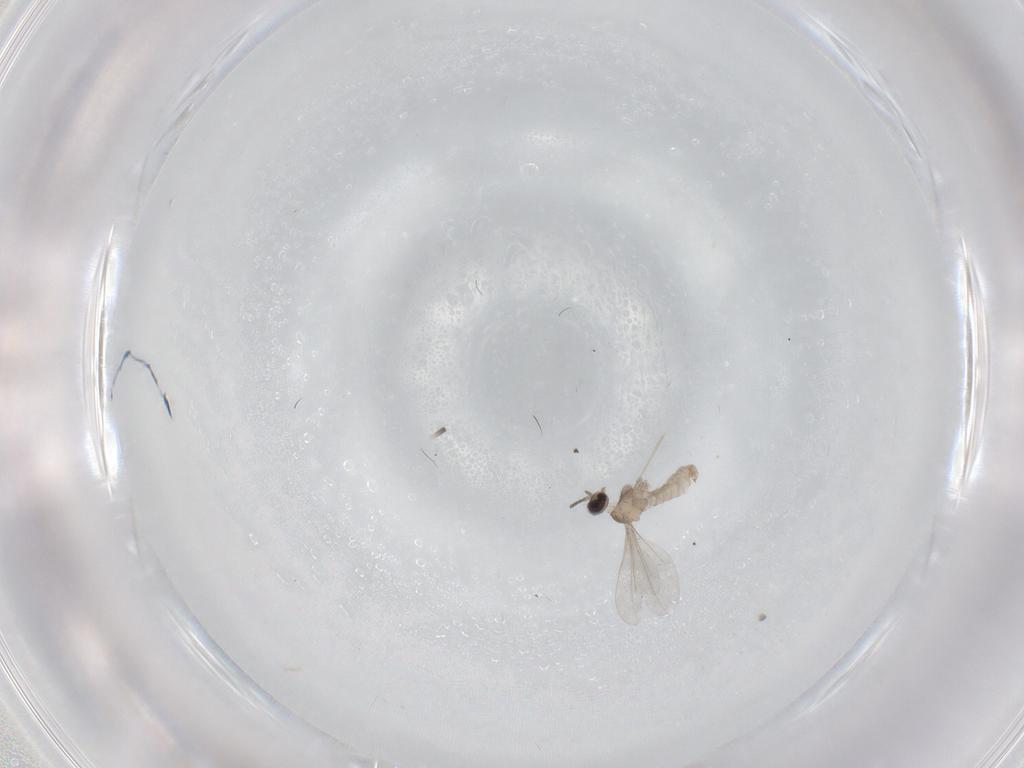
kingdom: Animalia
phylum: Arthropoda
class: Insecta
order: Diptera
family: Cecidomyiidae
